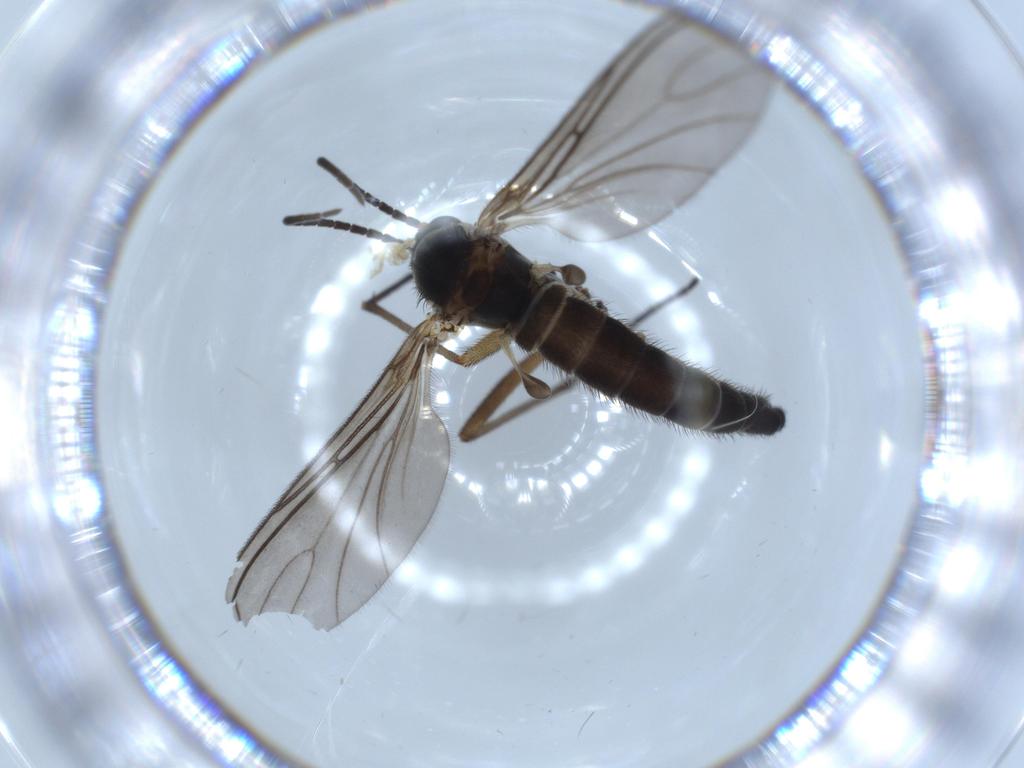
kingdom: Animalia
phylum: Arthropoda
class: Insecta
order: Diptera
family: Sciaridae
